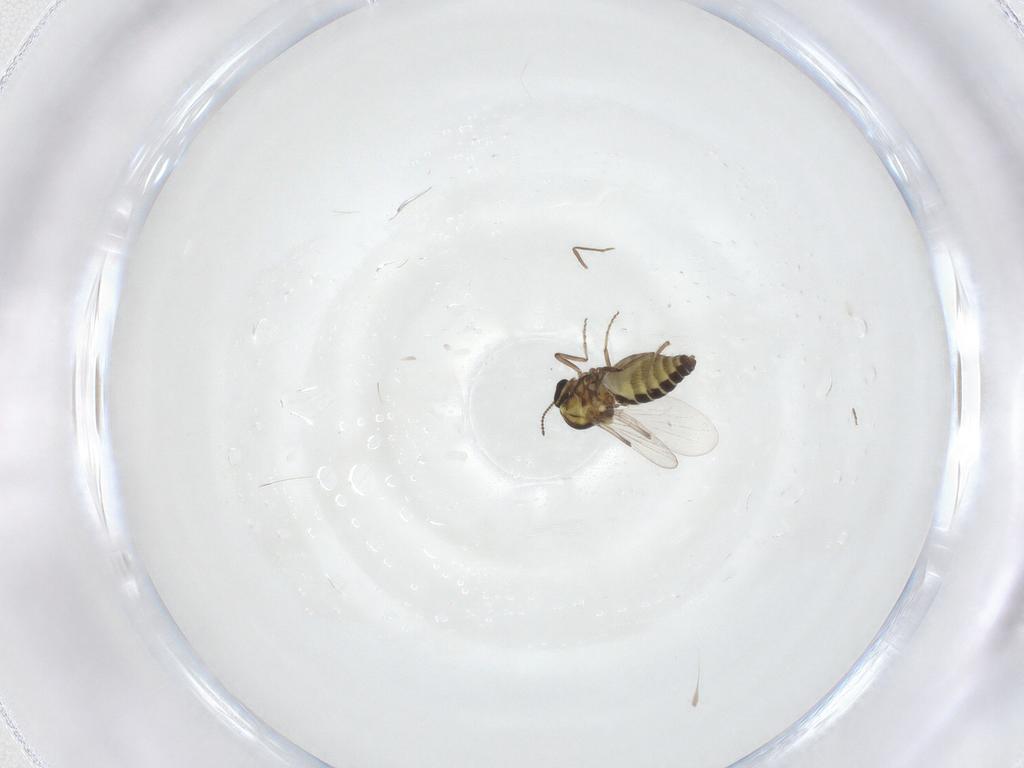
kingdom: Animalia
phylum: Arthropoda
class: Insecta
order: Diptera
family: Ceratopogonidae
